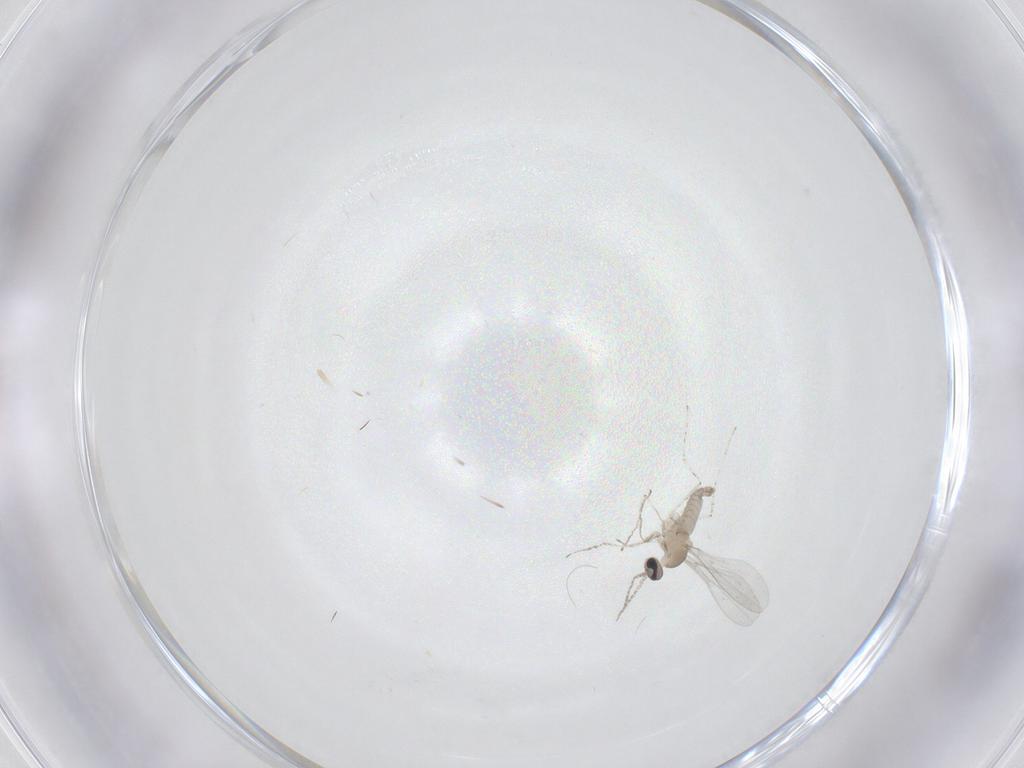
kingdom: Animalia
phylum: Arthropoda
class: Insecta
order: Diptera
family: Cecidomyiidae
